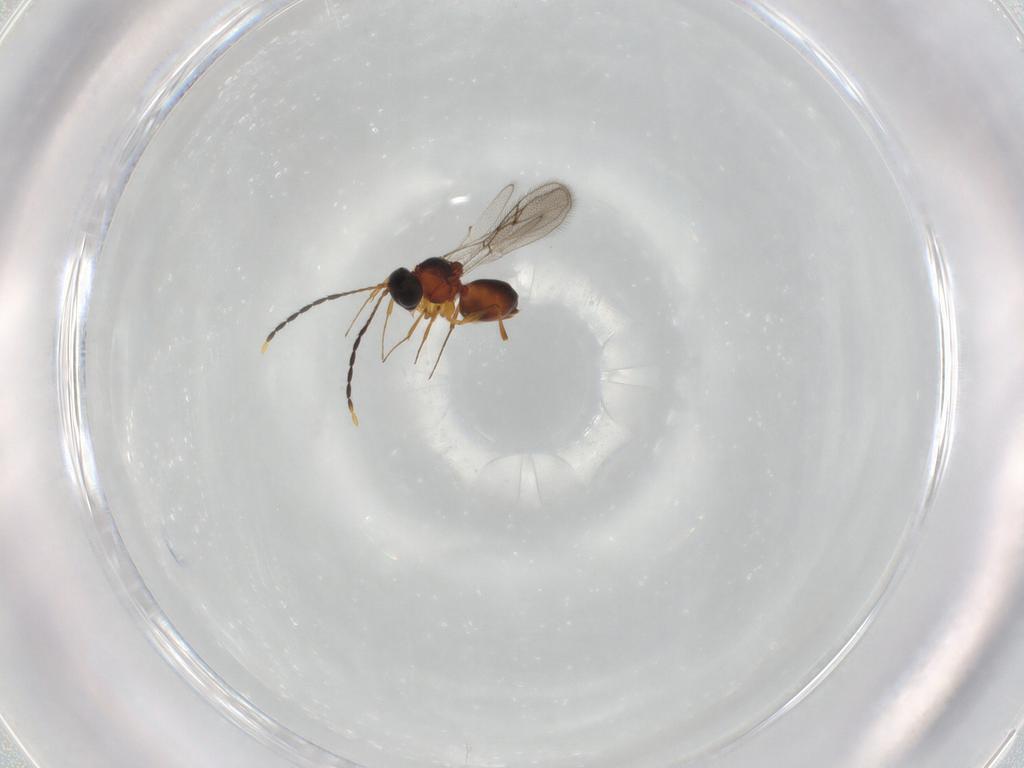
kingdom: Animalia
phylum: Arthropoda
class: Insecta
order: Hymenoptera
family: Figitidae
